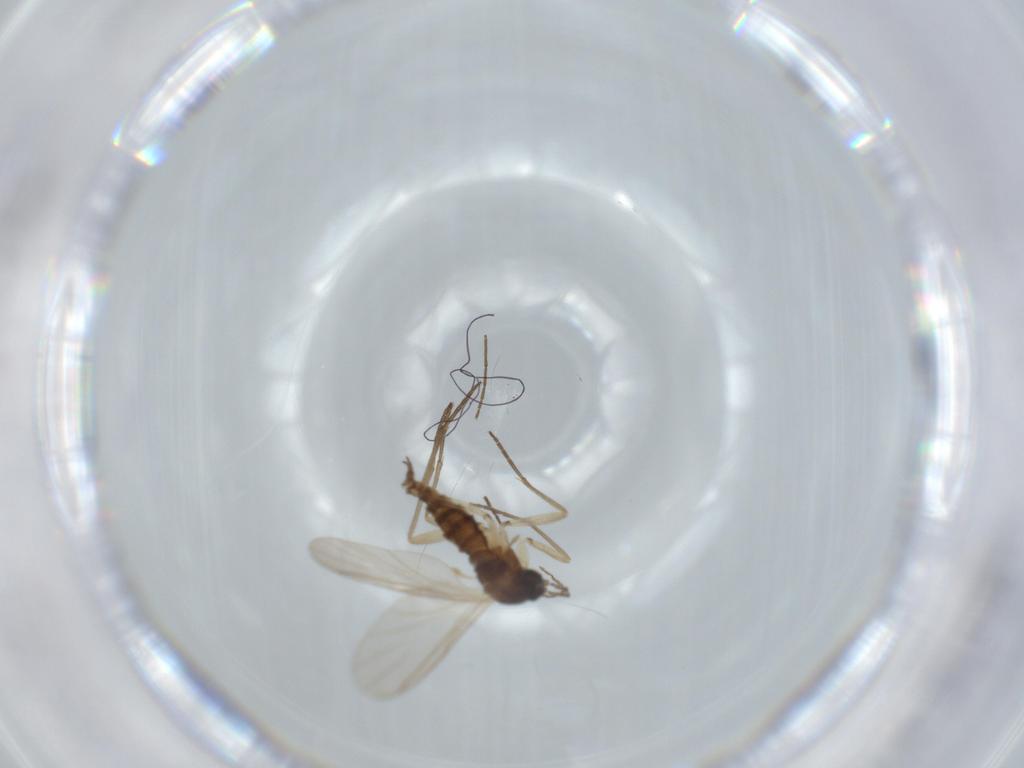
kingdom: Animalia
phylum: Arthropoda
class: Insecta
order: Diptera
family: Sciaridae
